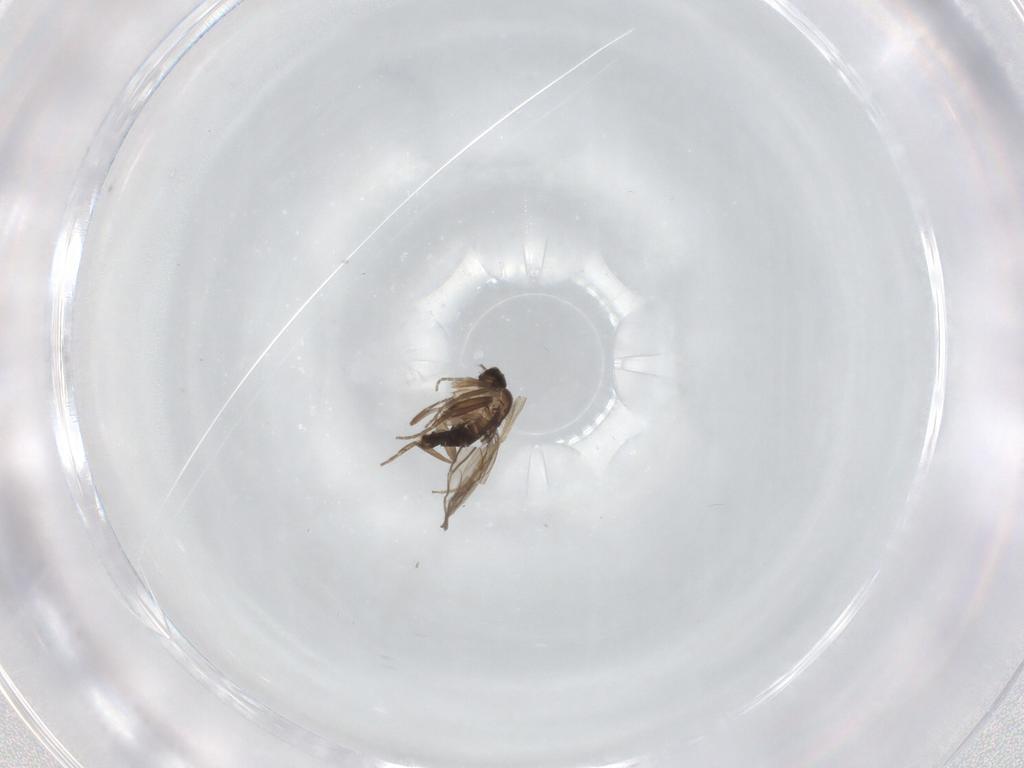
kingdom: Animalia
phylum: Arthropoda
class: Insecta
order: Diptera
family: Phoridae
